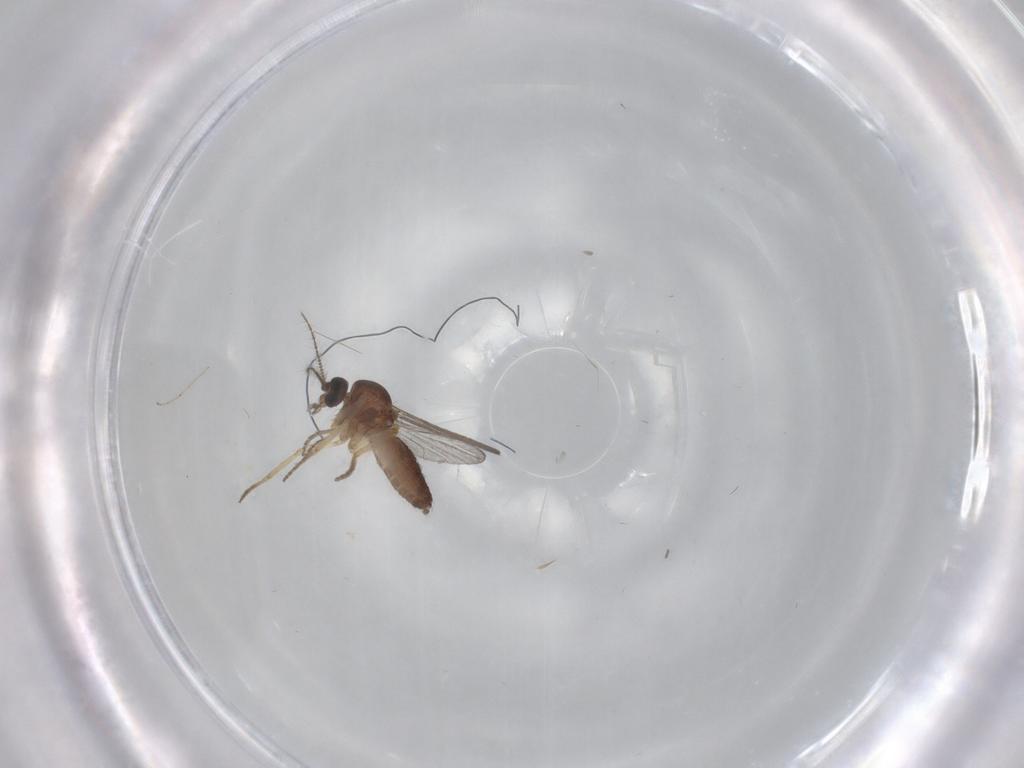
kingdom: Animalia
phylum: Arthropoda
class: Insecta
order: Diptera
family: Ceratopogonidae
